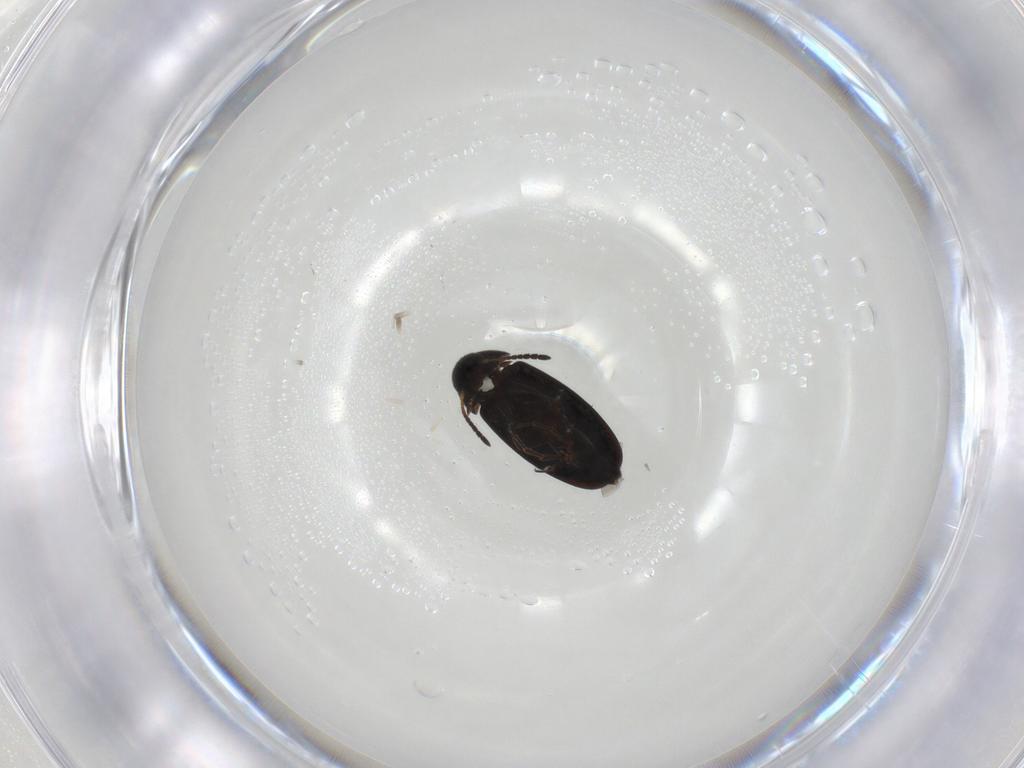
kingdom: Animalia
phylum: Arthropoda
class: Insecta
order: Coleoptera
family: Scraptiidae
